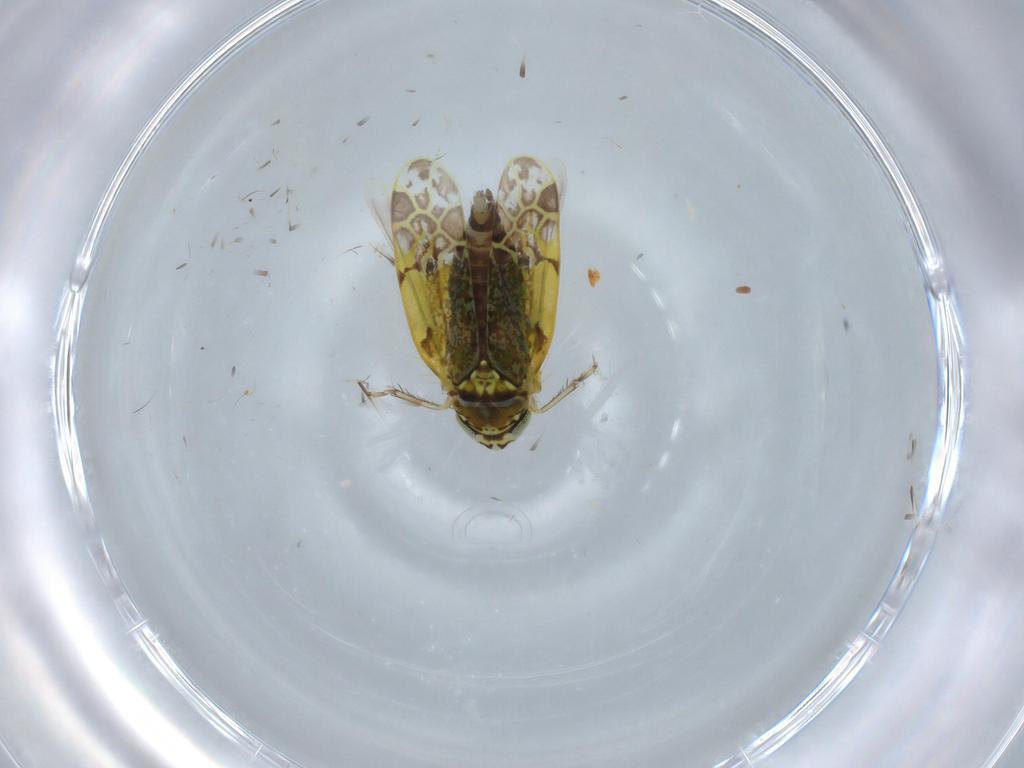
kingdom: Animalia
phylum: Arthropoda
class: Insecta
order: Hemiptera
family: Cicadellidae
